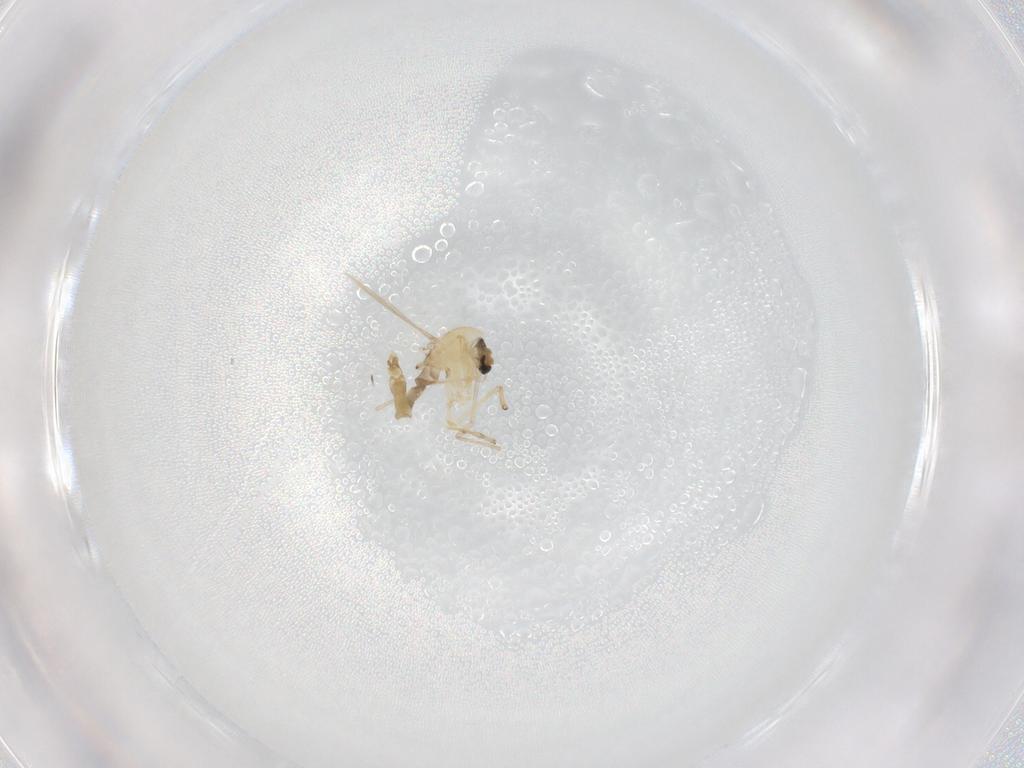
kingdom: Animalia
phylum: Arthropoda
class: Insecta
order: Diptera
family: Chironomidae
